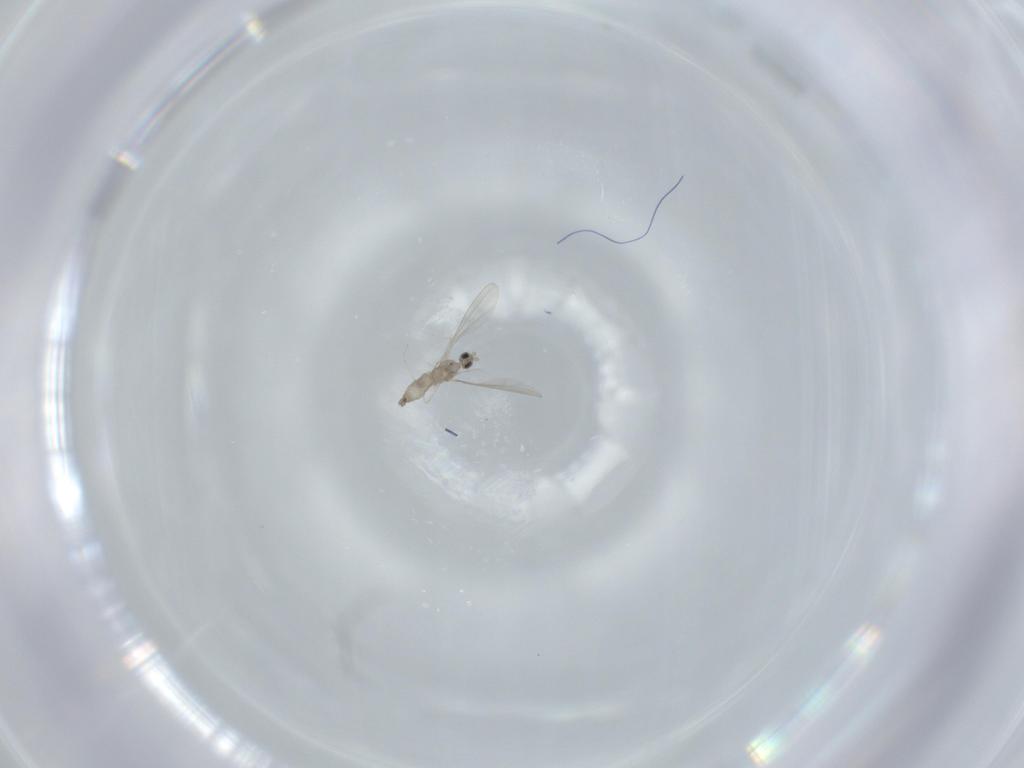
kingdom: Animalia
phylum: Arthropoda
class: Insecta
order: Diptera
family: Cecidomyiidae
